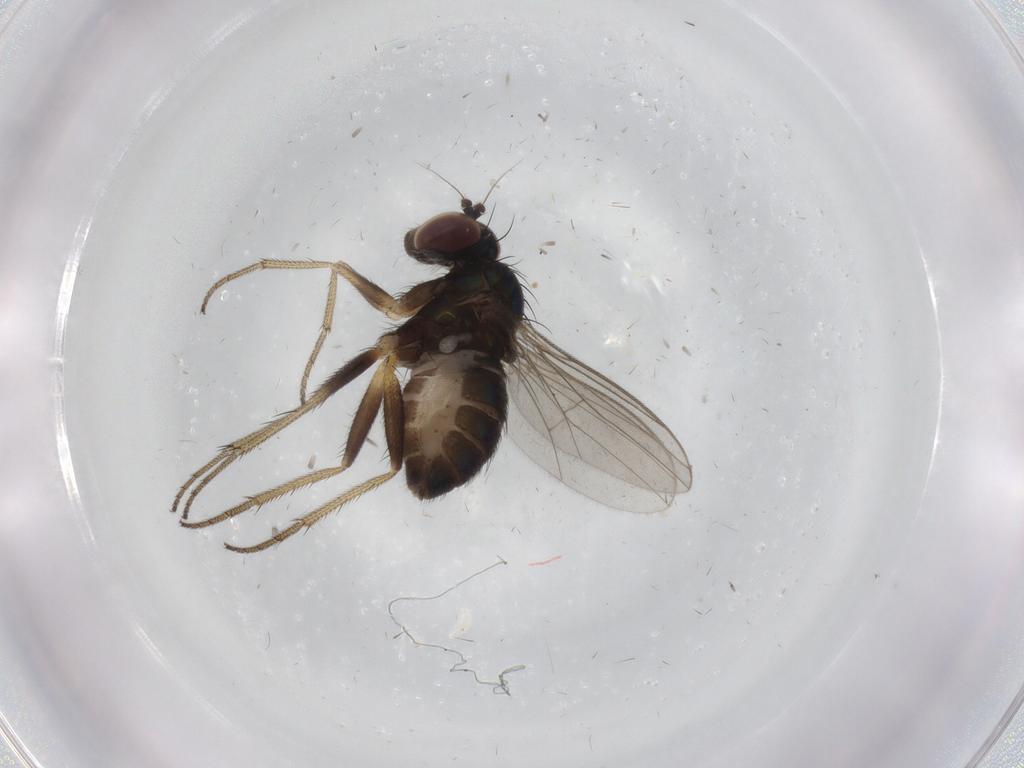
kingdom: Animalia
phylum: Arthropoda
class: Insecta
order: Diptera
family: Dolichopodidae
